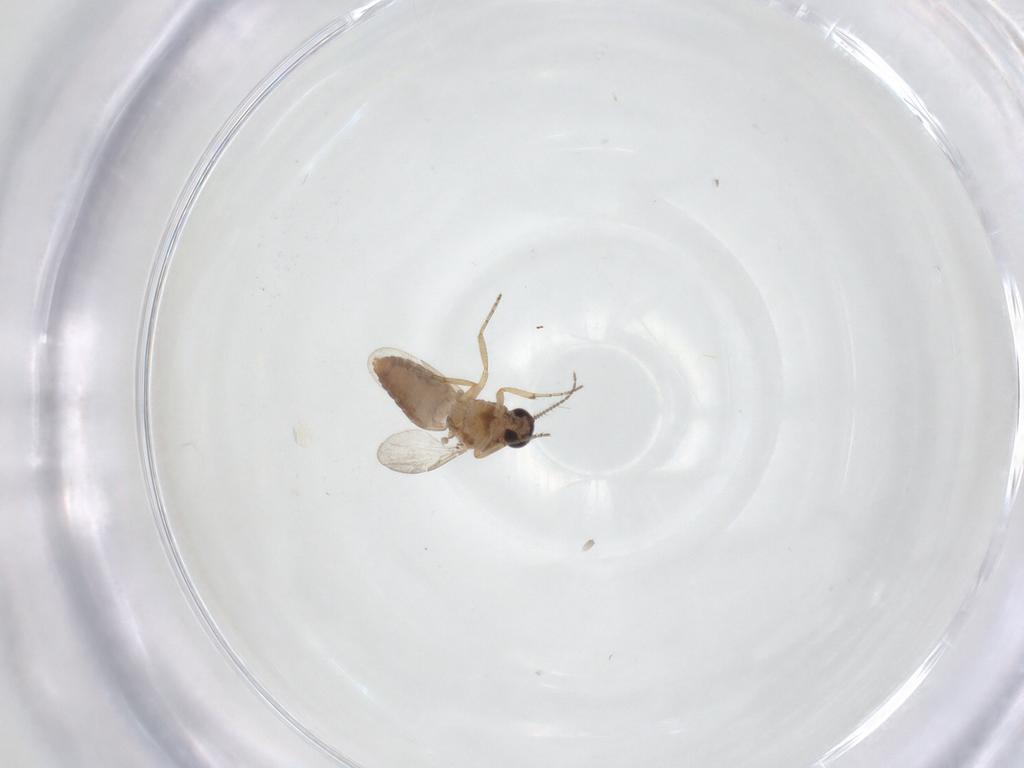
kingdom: Animalia
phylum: Arthropoda
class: Insecta
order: Diptera
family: Ceratopogonidae
